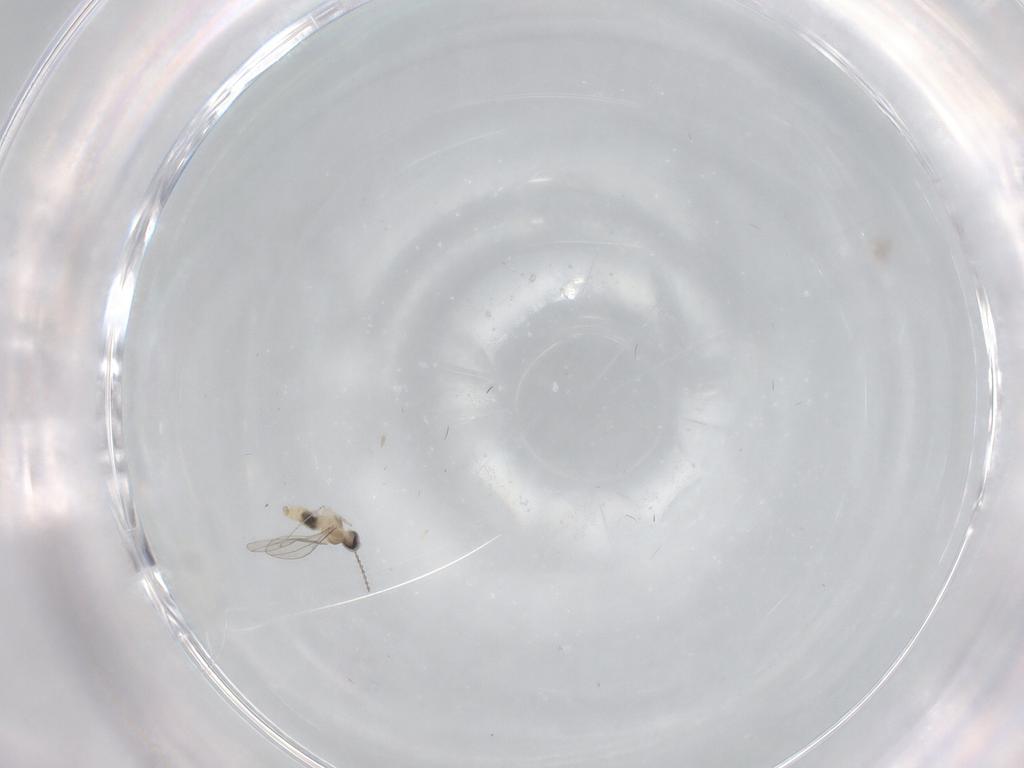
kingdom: Animalia
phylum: Arthropoda
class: Insecta
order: Diptera
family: Cecidomyiidae
